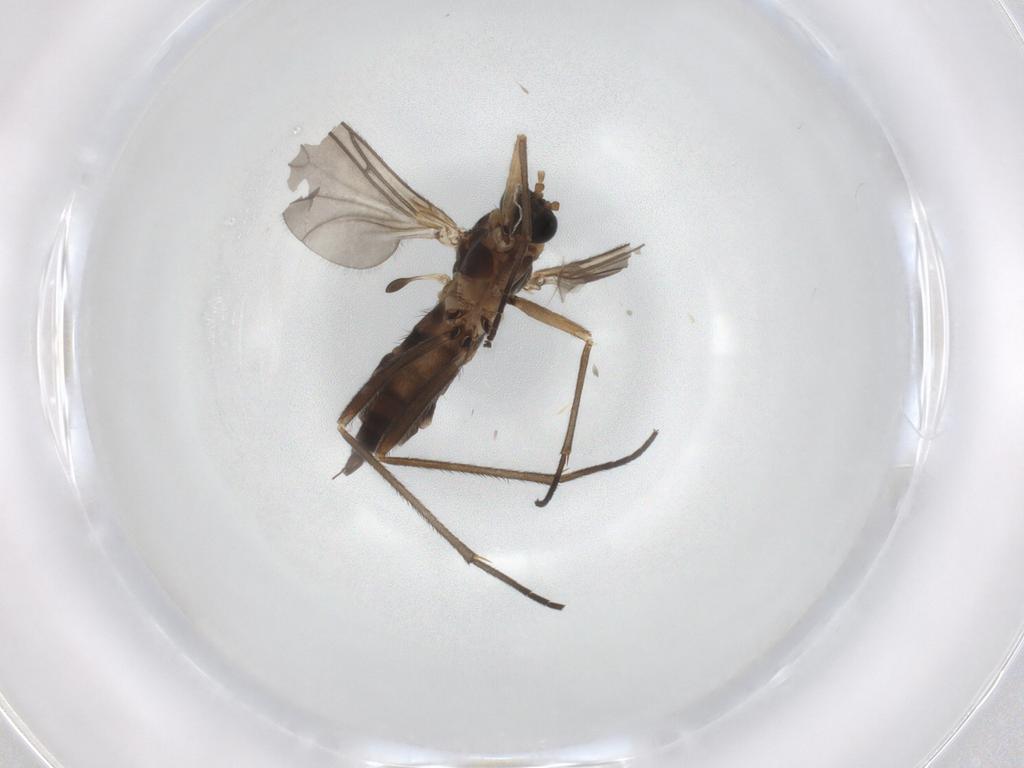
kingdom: Animalia
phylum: Arthropoda
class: Insecta
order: Diptera
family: Sciaridae
